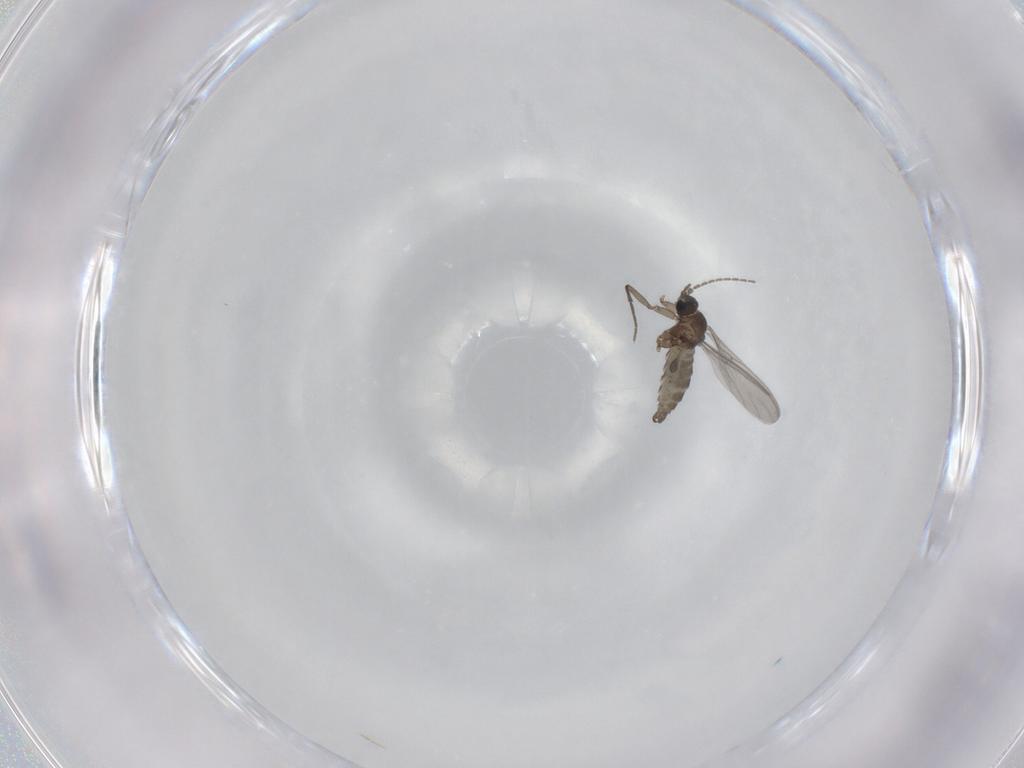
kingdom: Animalia
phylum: Arthropoda
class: Insecta
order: Diptera
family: Sciaridae
